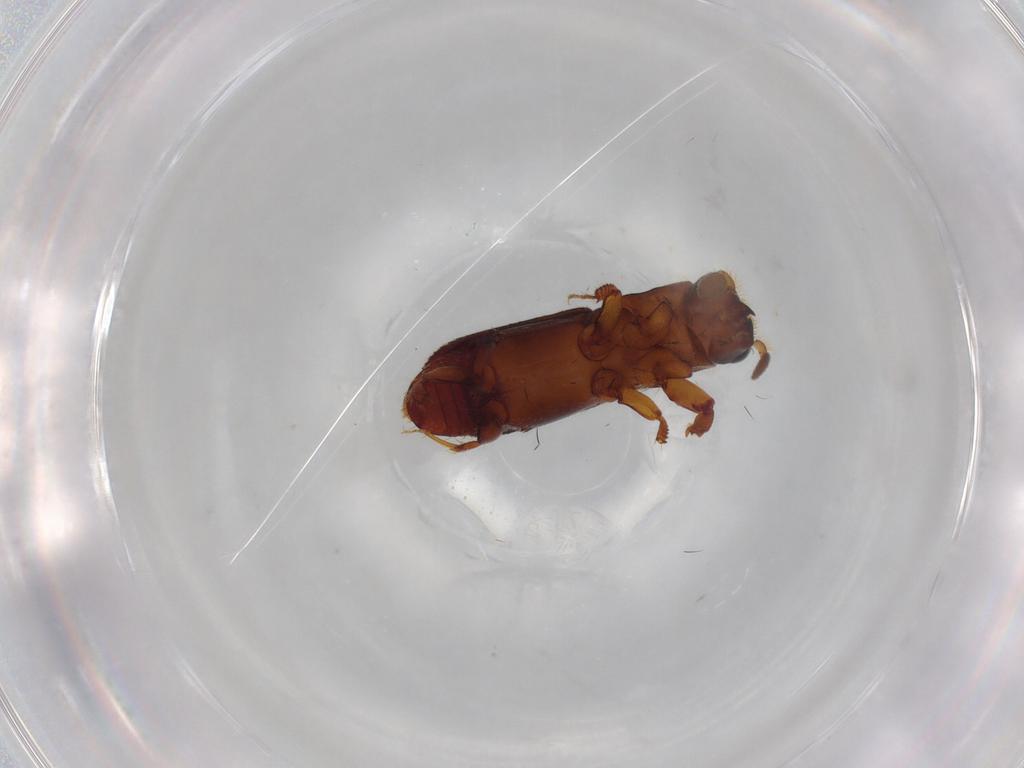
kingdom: Animalia
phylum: Arthropoda
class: Insecta
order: Coleoptera
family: Curculionidae
